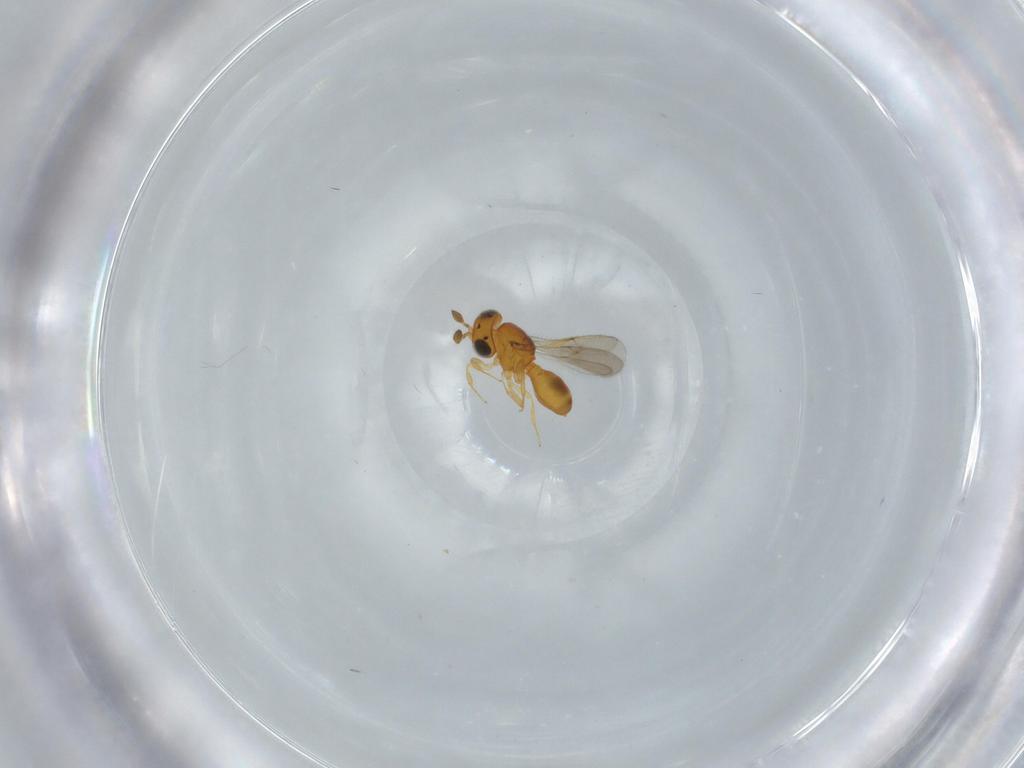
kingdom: Animalia
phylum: Arthropoda
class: Insecta
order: Hymenoptera
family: Scelionidae
